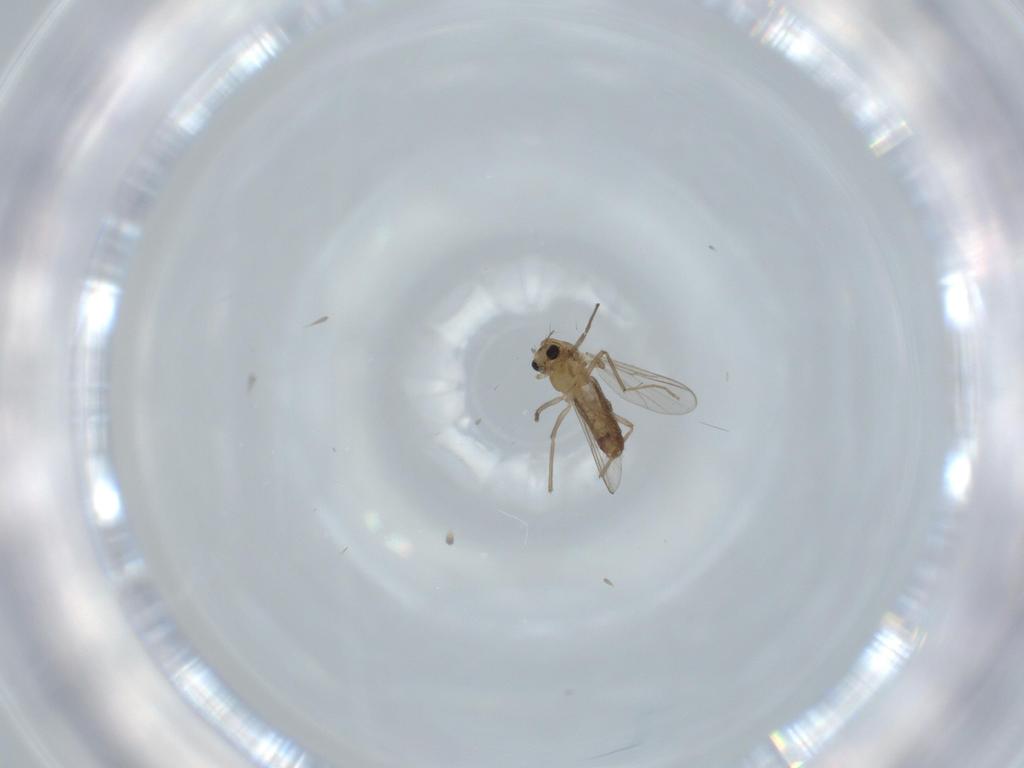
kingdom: Animalia
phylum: Arthropoda
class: Insecta
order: Diptera
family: Chironomidae
